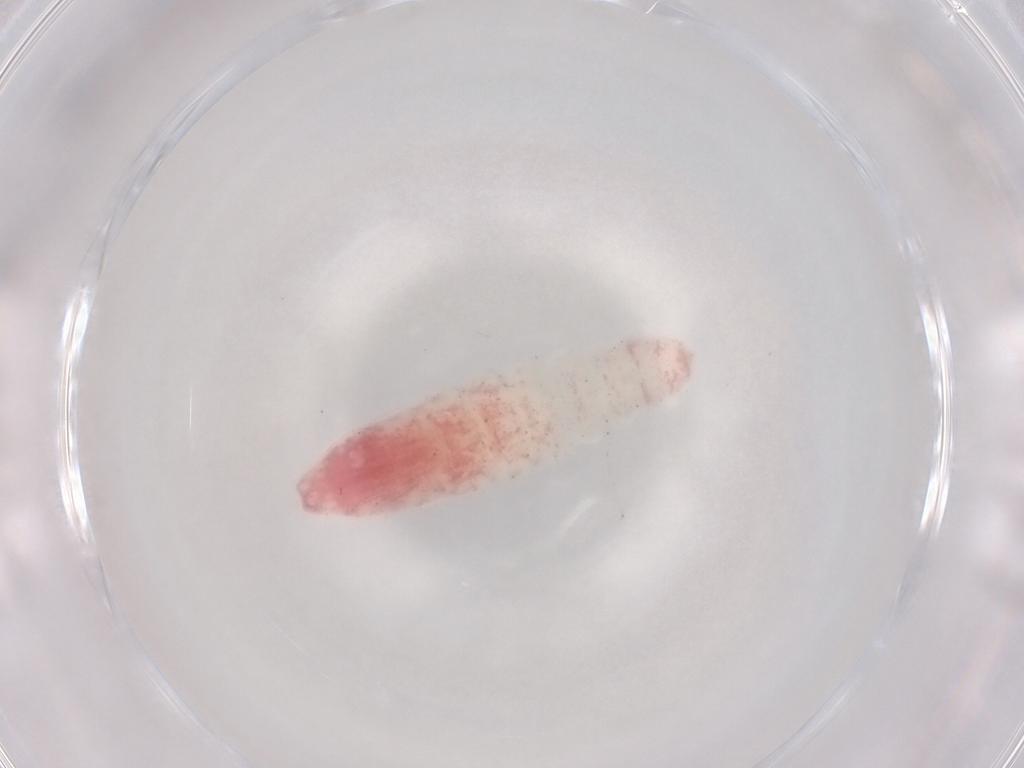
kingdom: Animalia
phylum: Arthropoda
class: Insecta
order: Diptera
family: Cecidomyiidae
